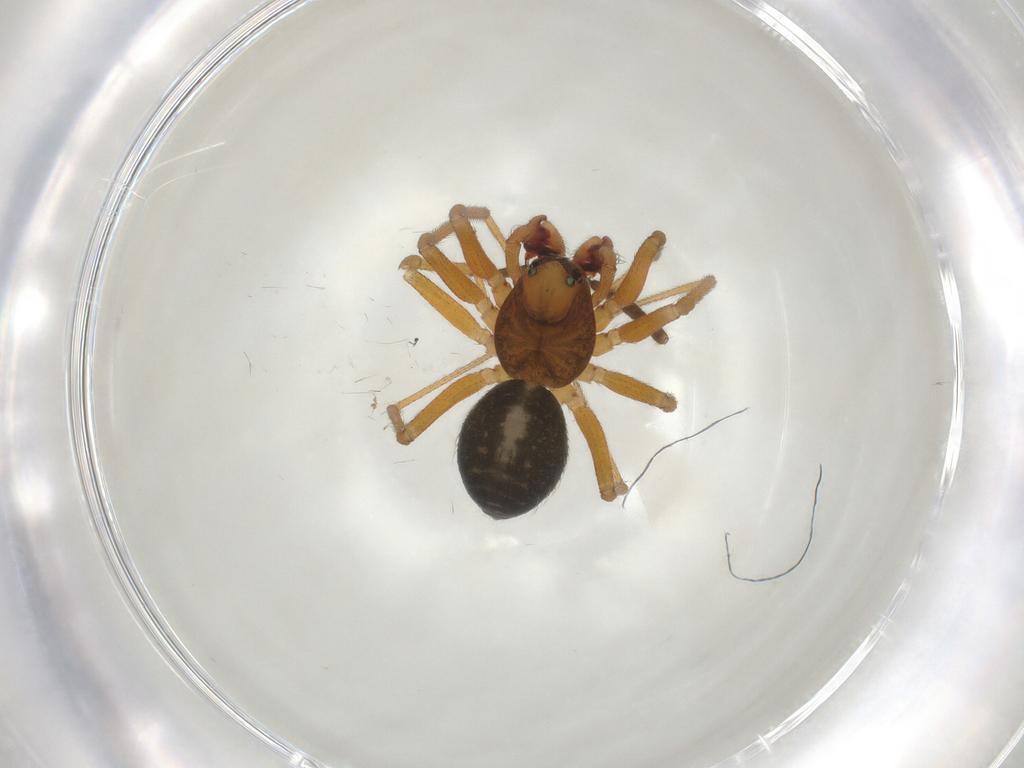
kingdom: Animalia
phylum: Arthropoda
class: Arachnida
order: Araneae
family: Linyphiidae
